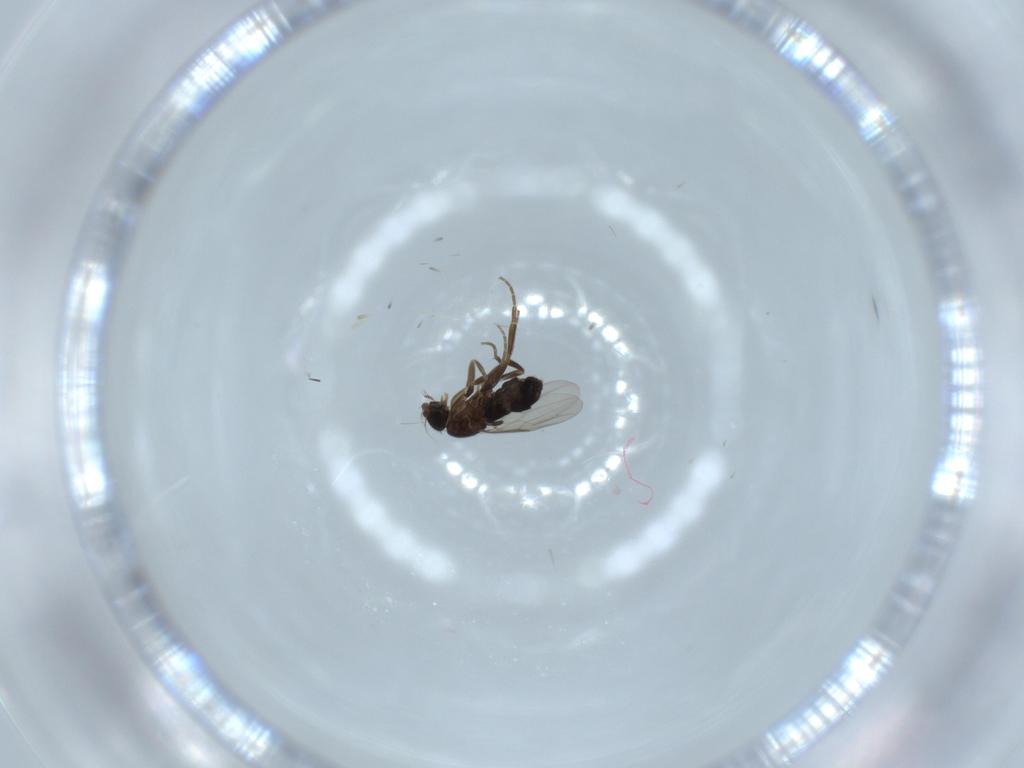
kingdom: Animalia
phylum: Arthropoda
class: Insecta
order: Diptera
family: Phoridae
